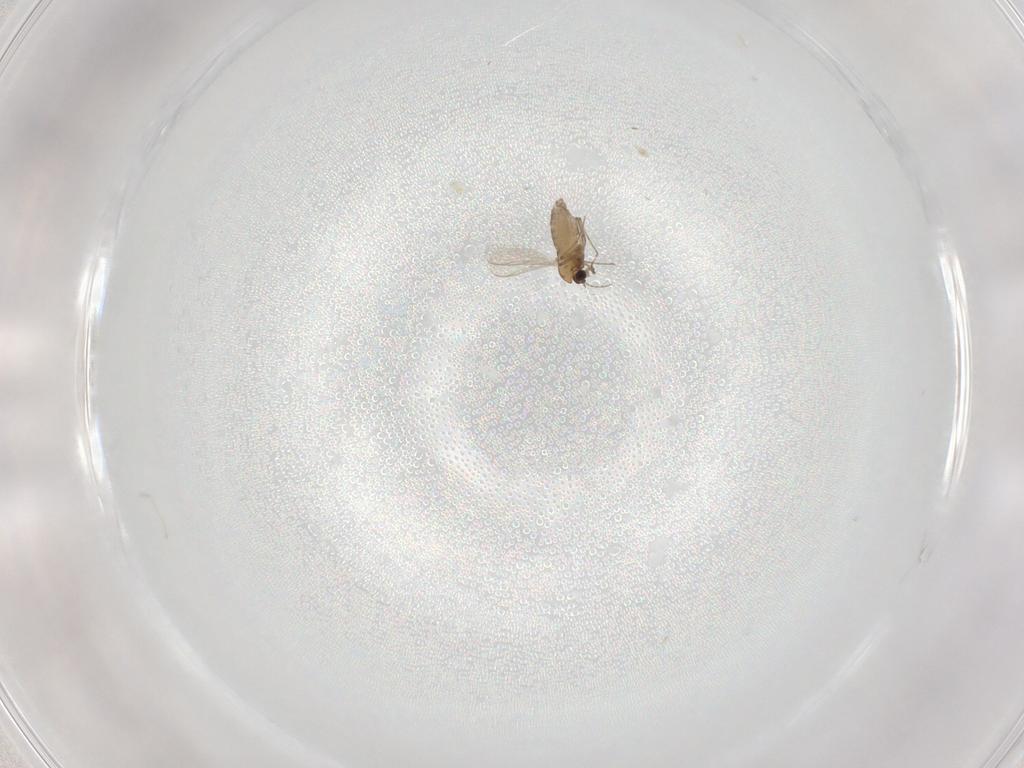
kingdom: Animalia
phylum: Arthropoda
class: Insecta
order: Diptera
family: Chironomidae
